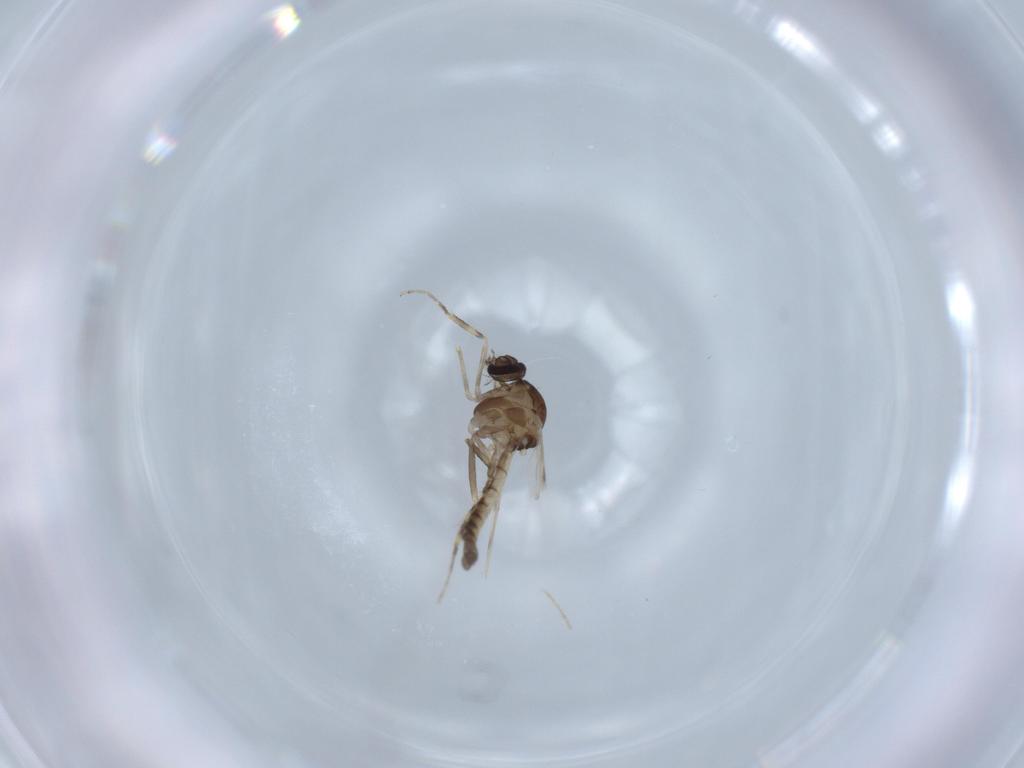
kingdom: Animalia
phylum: Arthropoda
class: Insecta
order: Diptera
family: Ceratopogonidae
